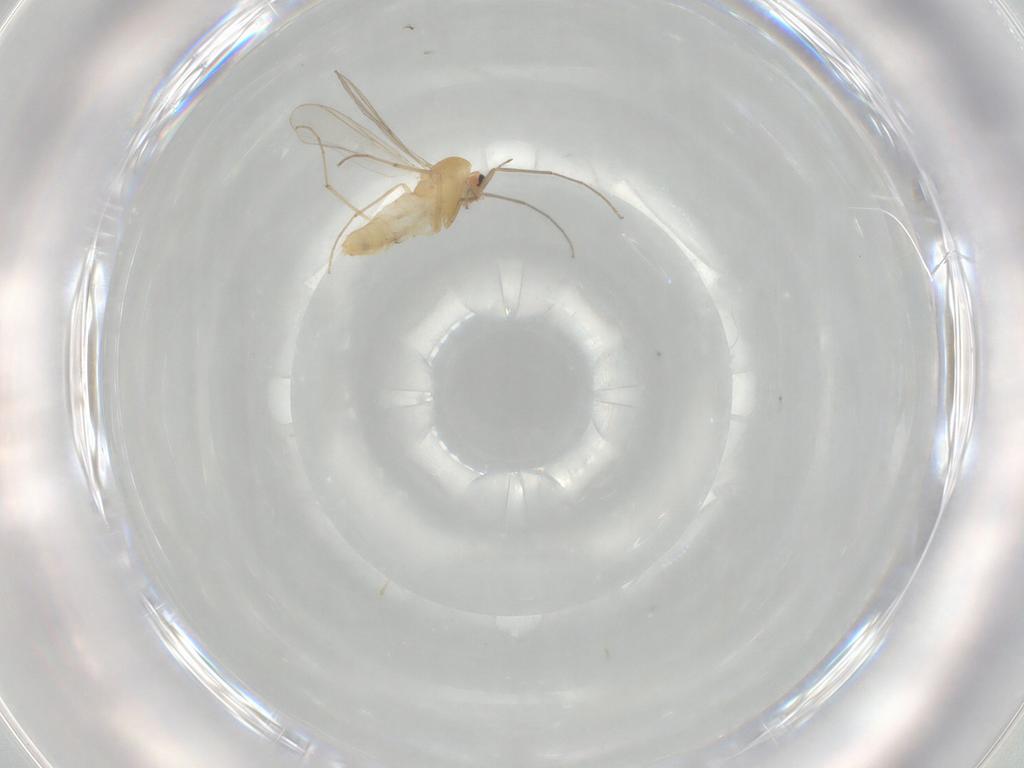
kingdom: Animalia
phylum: Arthropoda
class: Insecta
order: Diptera
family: Chironomidae
